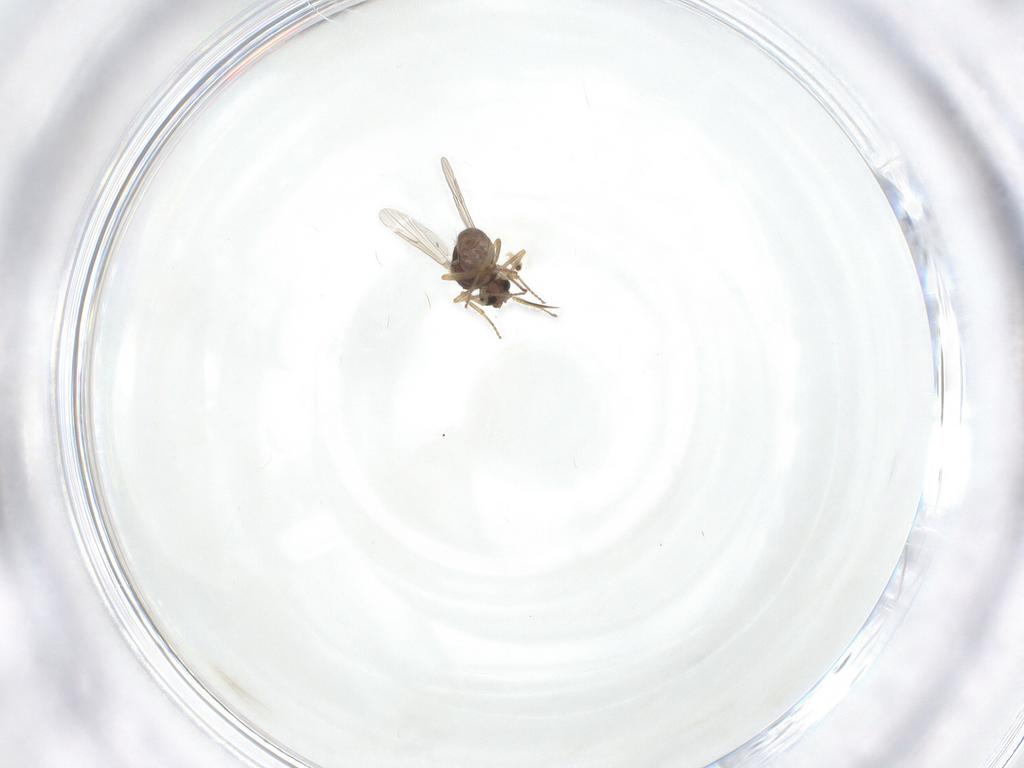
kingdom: Animalia
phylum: Arthropoda
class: Insecta
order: Diptera
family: Ceratopogonidae
